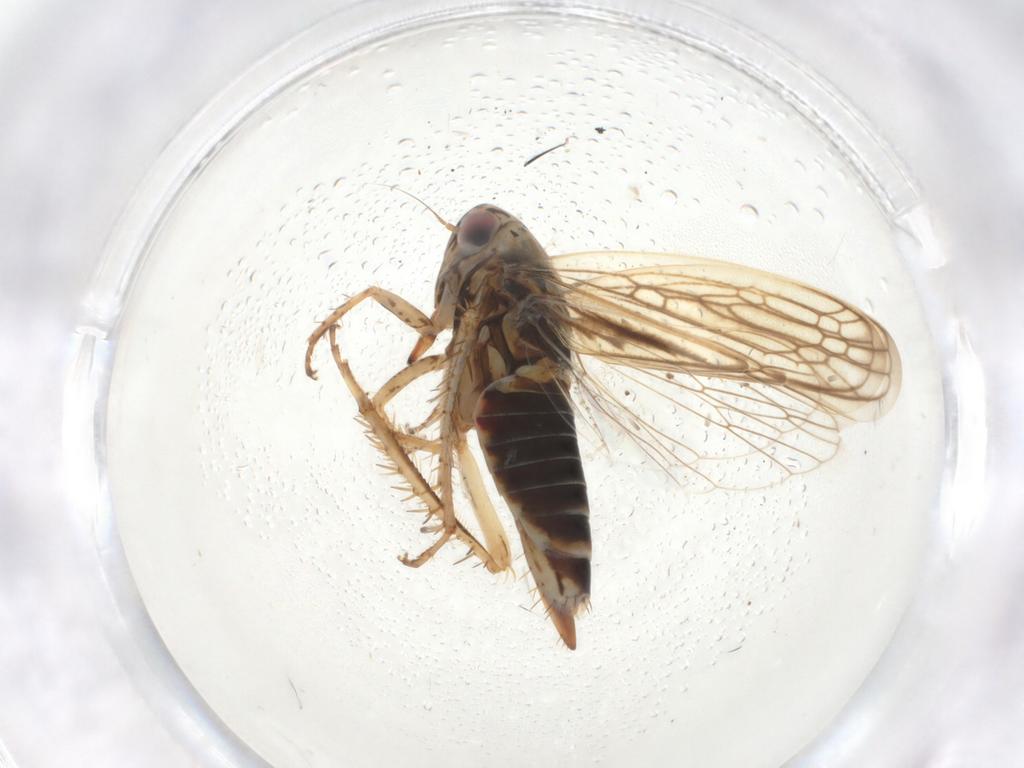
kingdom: Animalia
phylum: Arthropoda
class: Insecta
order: Hemiptera
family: Cicadellidae
